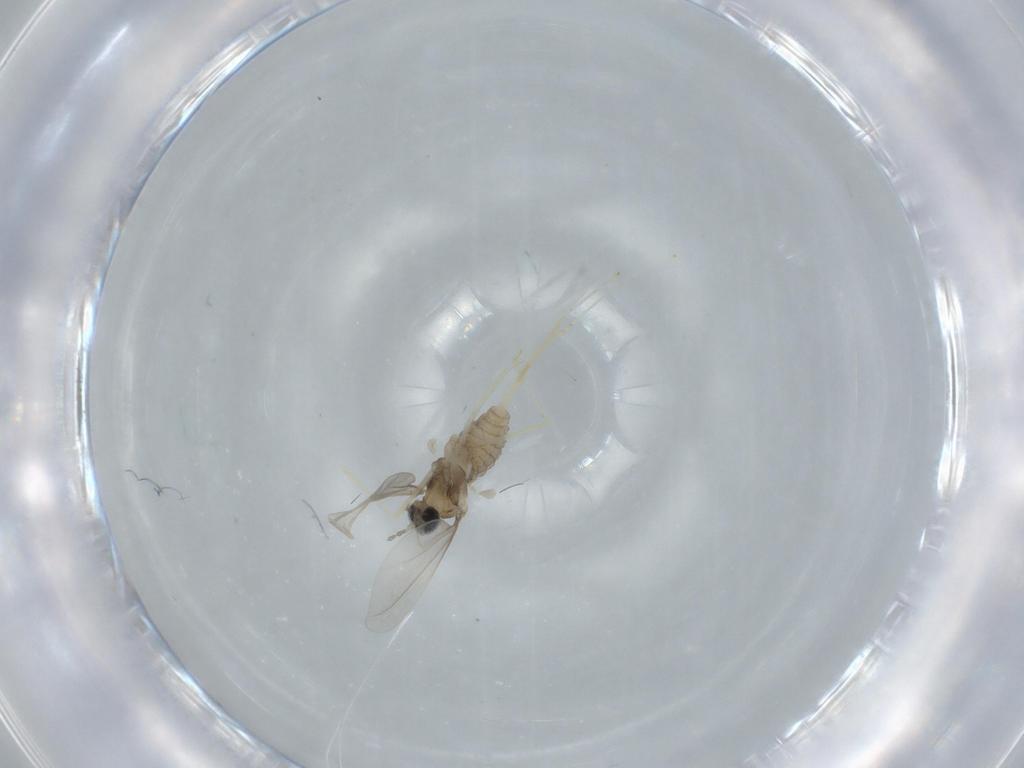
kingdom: Animalia
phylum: Arthropoda
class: Insecta
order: Diptera
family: Cecidomyiidae
